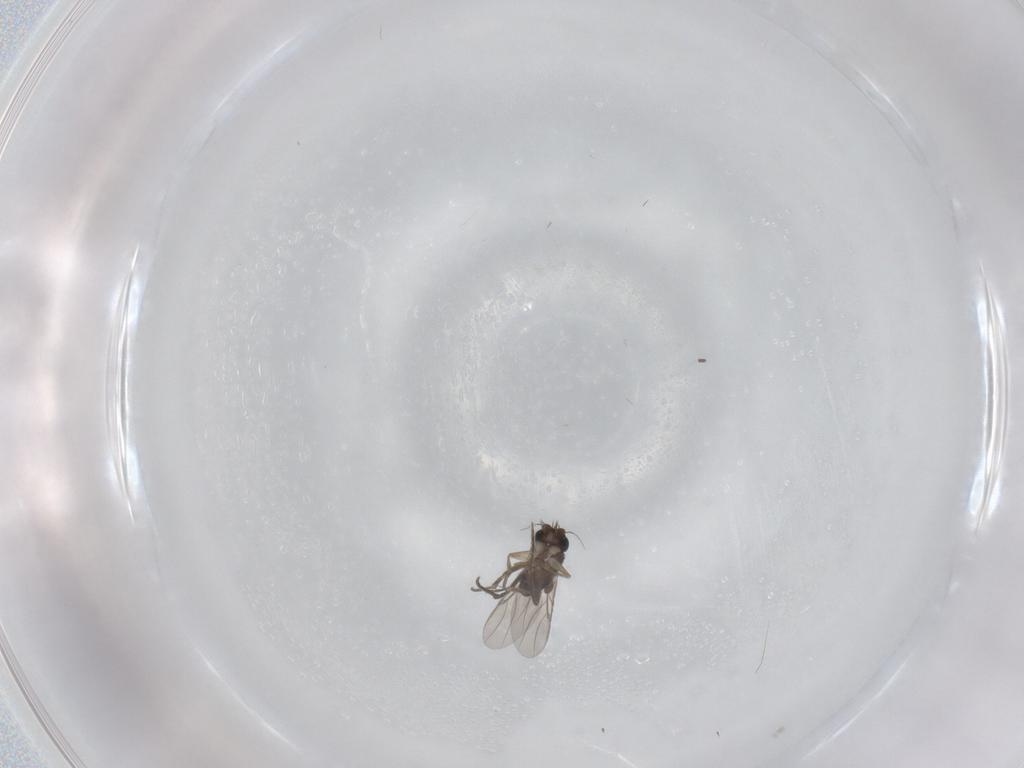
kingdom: Animalia
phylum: Arthropoda
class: Insecta
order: Diptera
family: Phoridae
